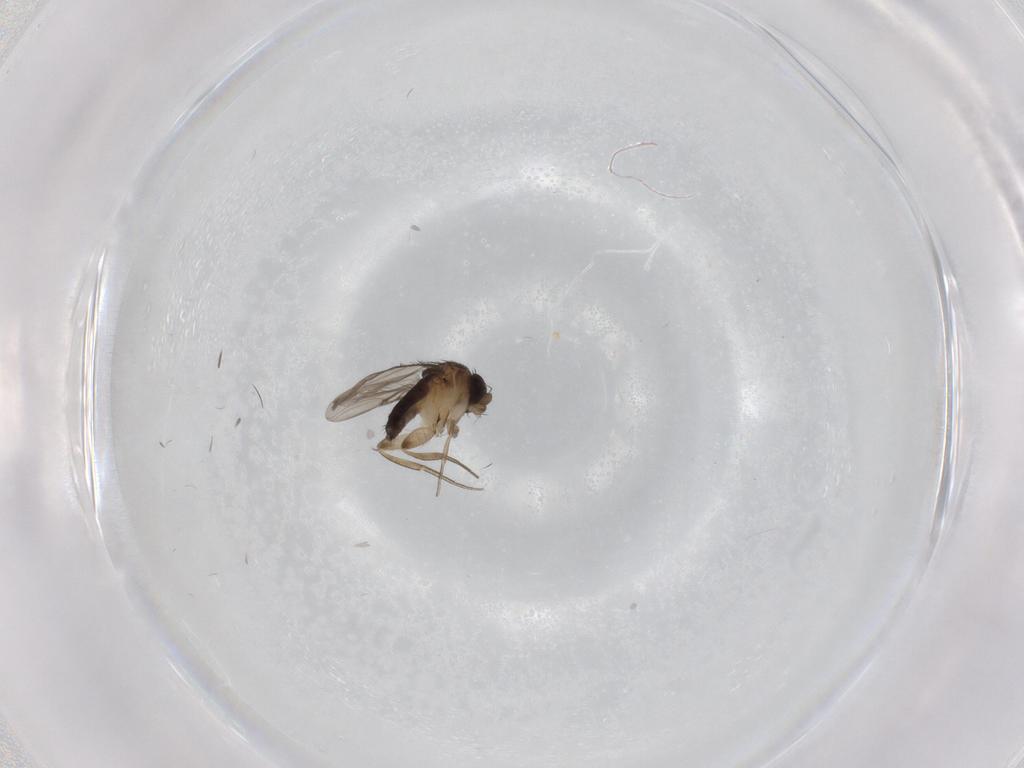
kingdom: Animalia
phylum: Arthropoda
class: Insecta
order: Diptera
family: Phoridae
